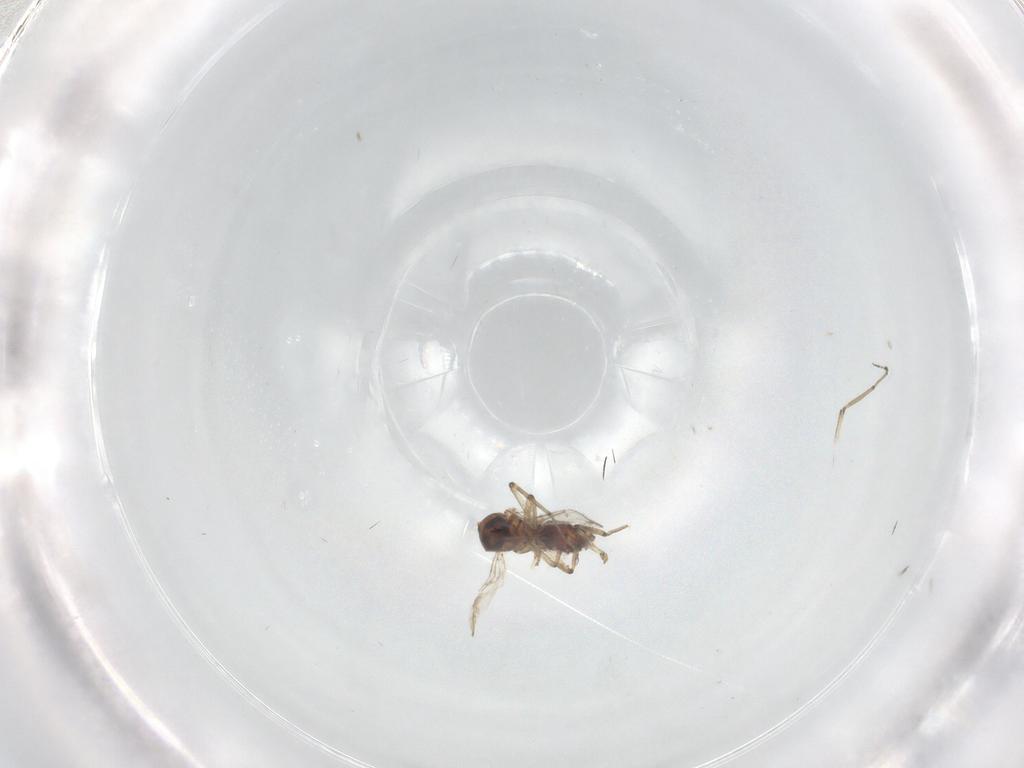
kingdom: Animalia
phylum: Arthropoda
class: Insecta
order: Diptera
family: Ceratopogonidae
